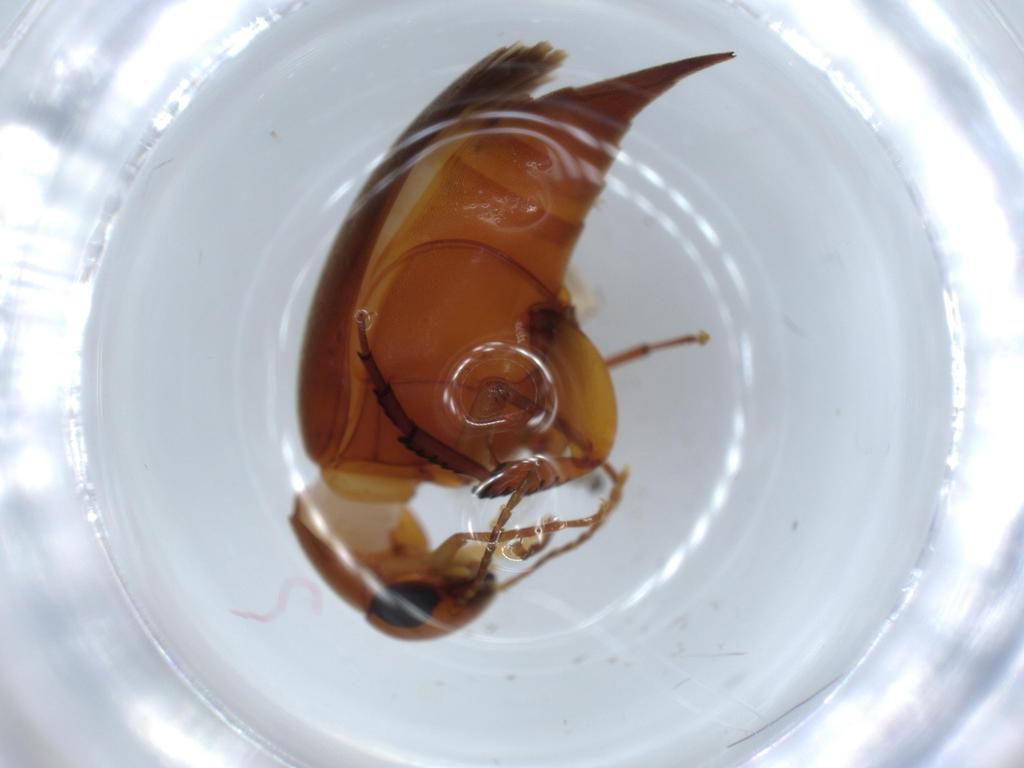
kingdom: Animalia
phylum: Arthropoda
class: Insecta
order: Coleoptera
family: Mordellidae
